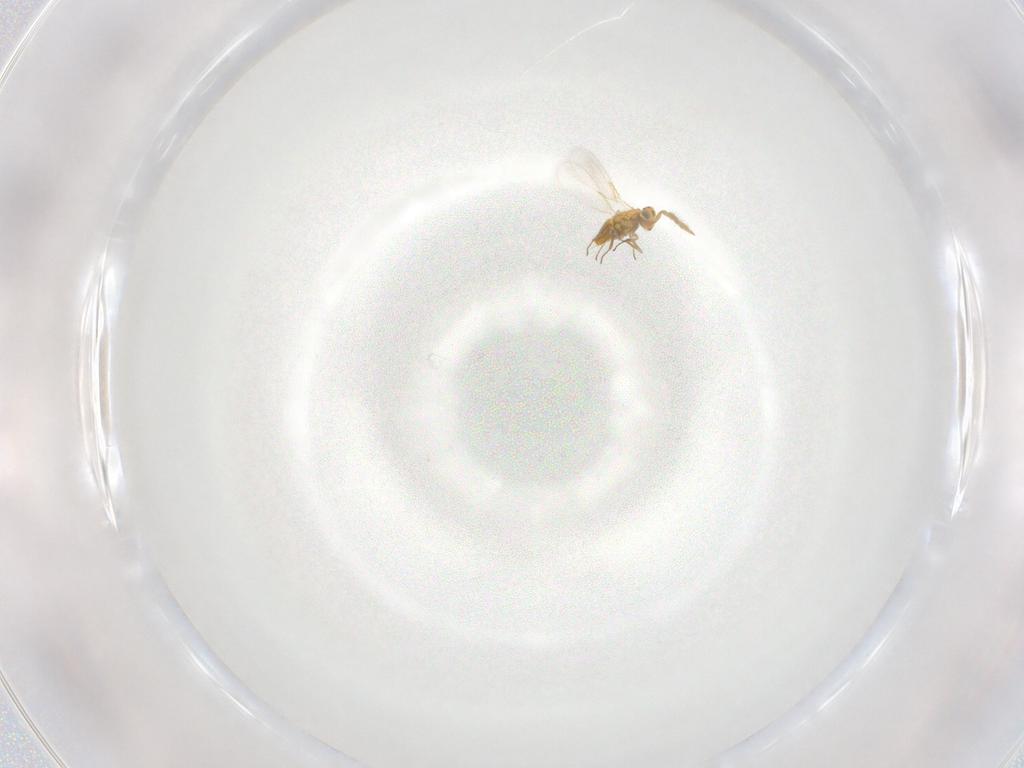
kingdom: Animalia
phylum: Arthropoda
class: Insecta
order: Hymenoptera
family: Aphelinidae
